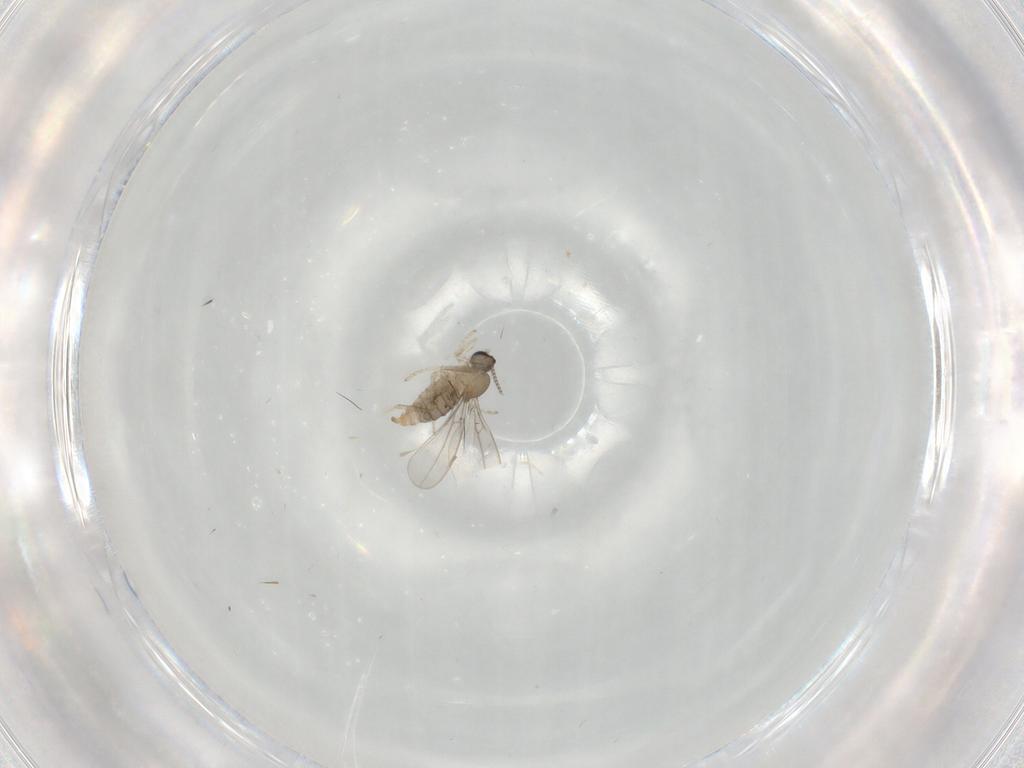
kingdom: Animalia
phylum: Arthropoda
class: Insecta
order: Diptera
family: Cecidomyiidae
